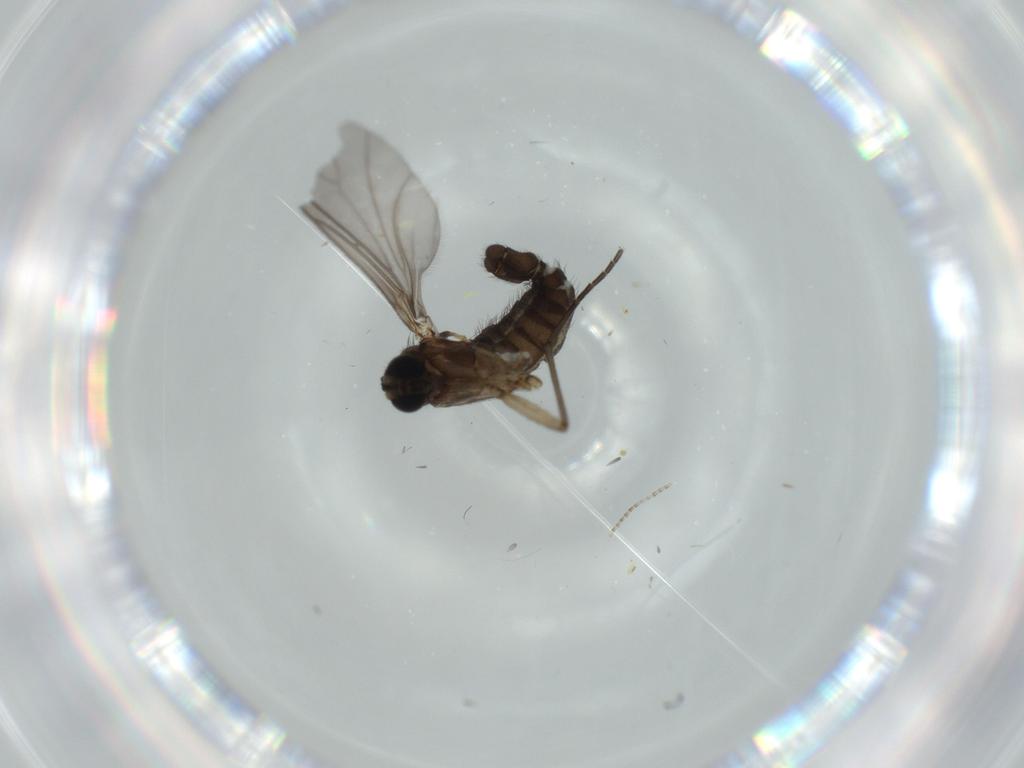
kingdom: Animalia
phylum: Arthropoda
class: Insecta
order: Diptera
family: Sciaridae
